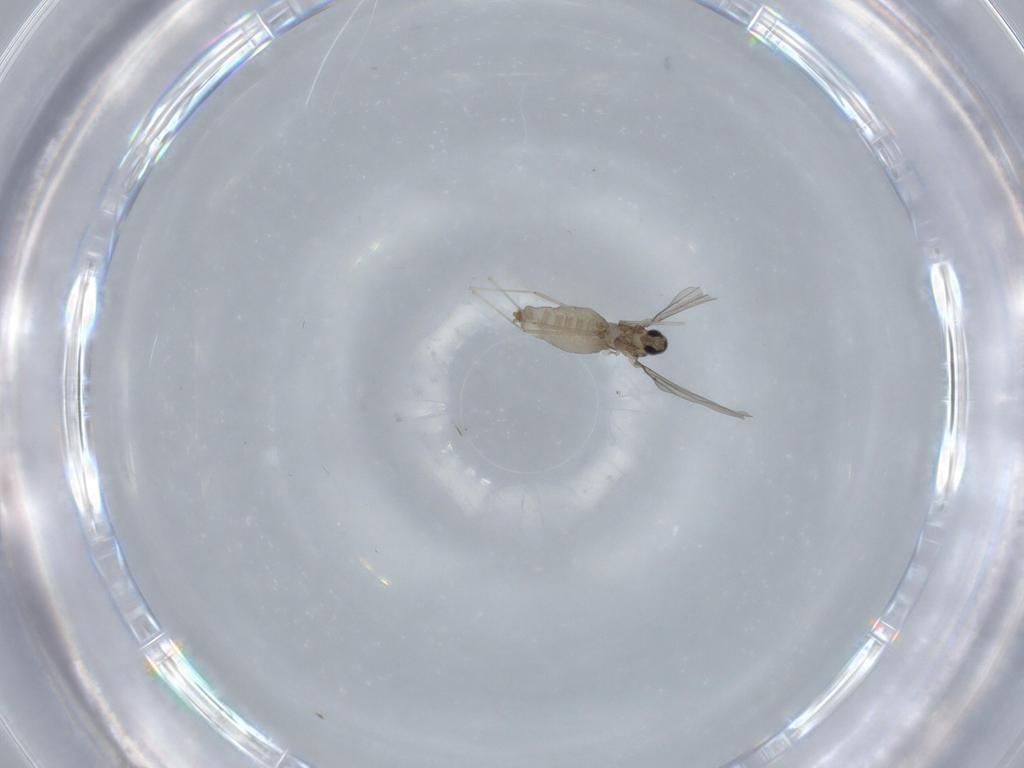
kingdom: Animalia
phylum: Arthropoda
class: Insecta
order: Diptera
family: Cecidomyiidae
